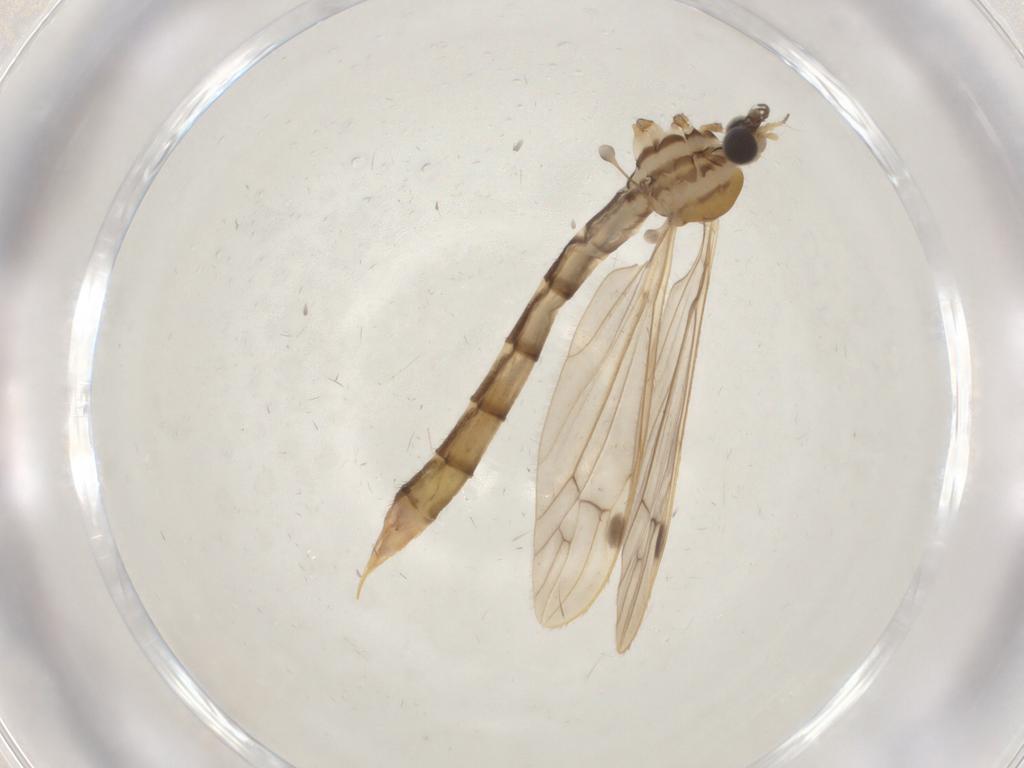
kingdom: Animalia
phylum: Arthropoda
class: Insecta
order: Diptera
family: Dolichopodidae
